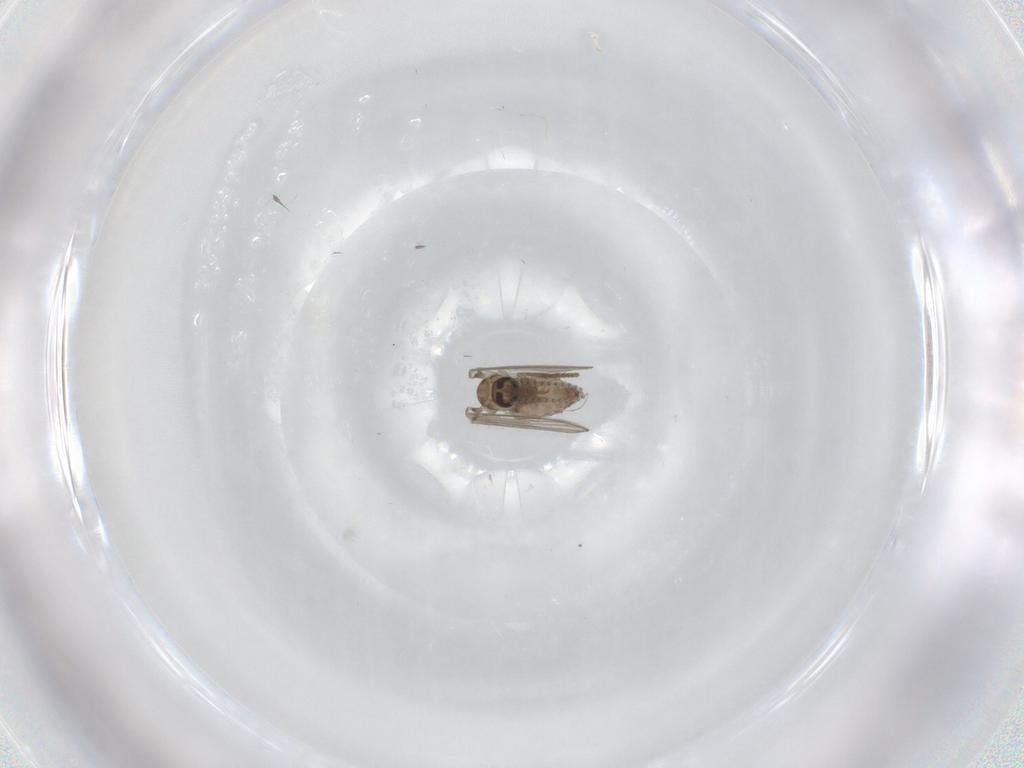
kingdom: Animalia
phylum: Arthropoda
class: Insecta
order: Diptera
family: Psychodidae
